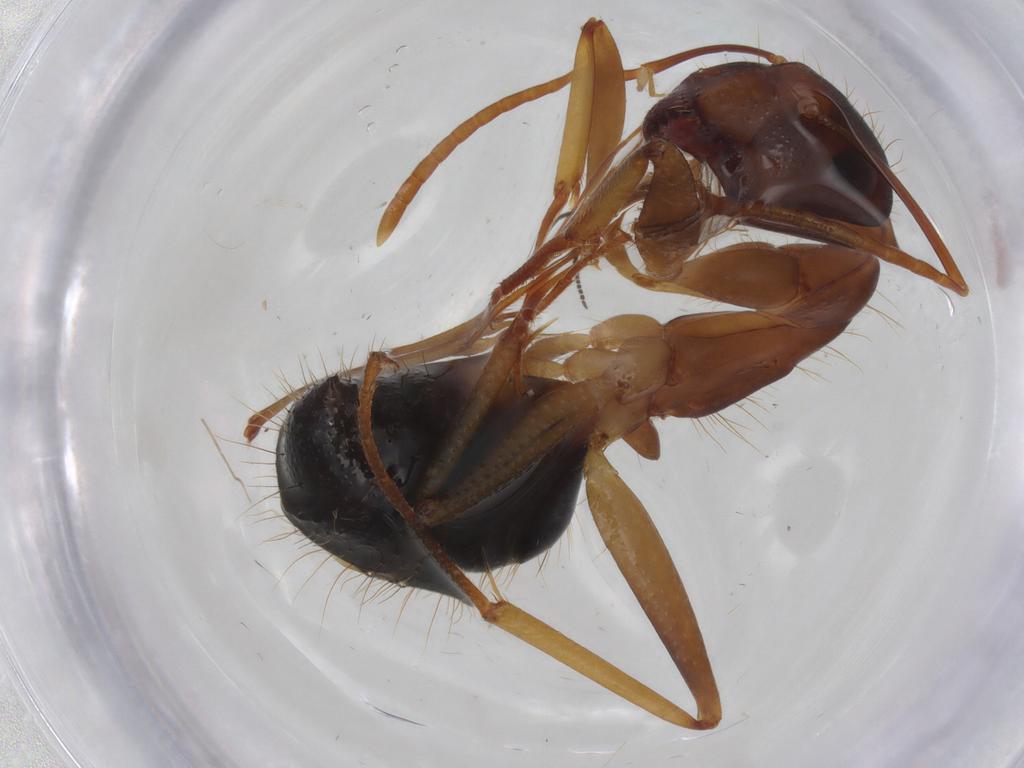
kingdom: Animalia
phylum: Arthropoda
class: Insecta
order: Hymenoptera
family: Formicidae
